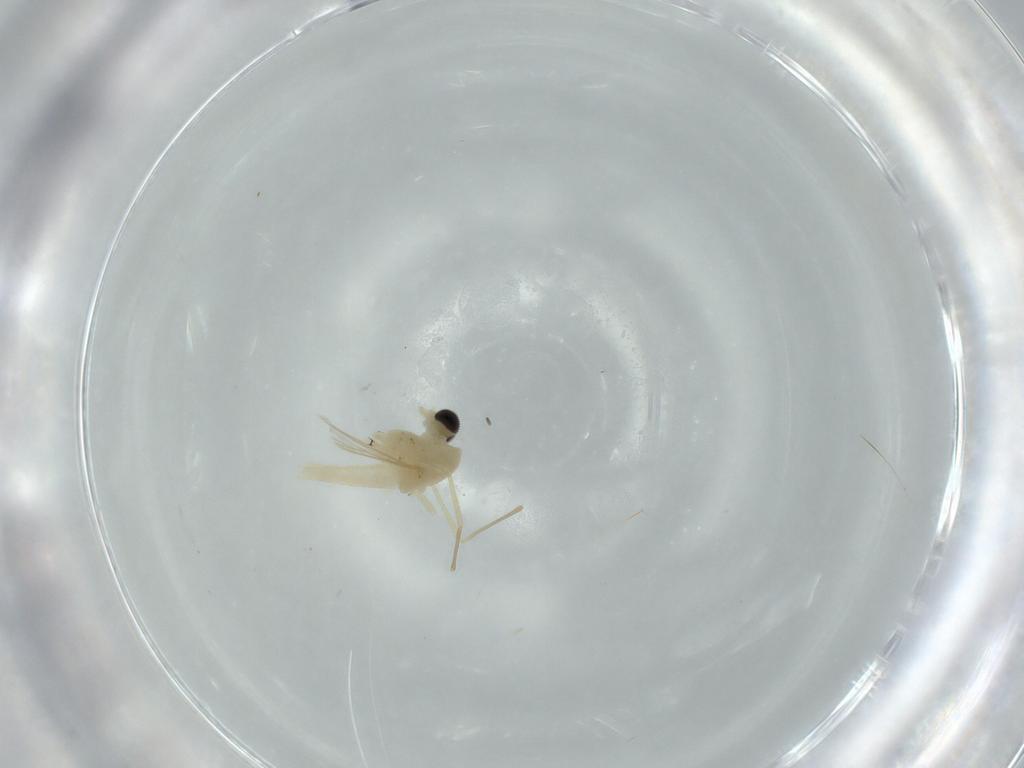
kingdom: Animalia
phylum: Arthropoda
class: Insecta
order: Diptera
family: Chironomidae
